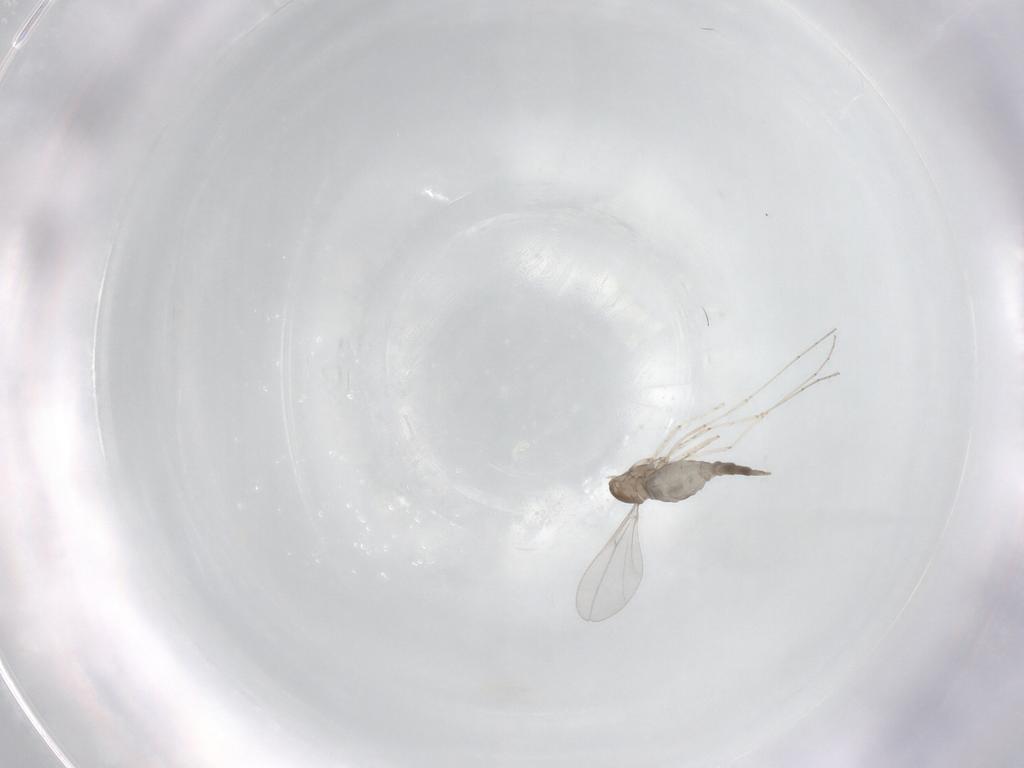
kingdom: Animalia
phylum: Arthropoda
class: Insecta
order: Diptera
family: Cecidomyiidae
